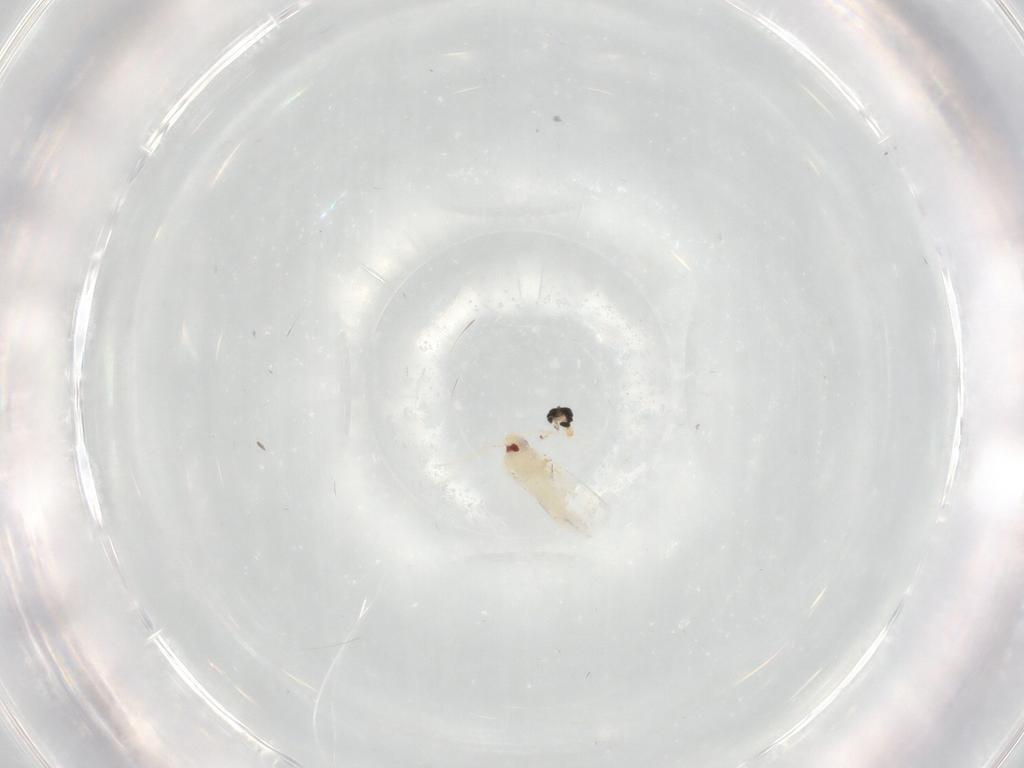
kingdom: Animalia
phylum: Arthropoda
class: Insecta
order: Hemiptera
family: Aleyrodidae
